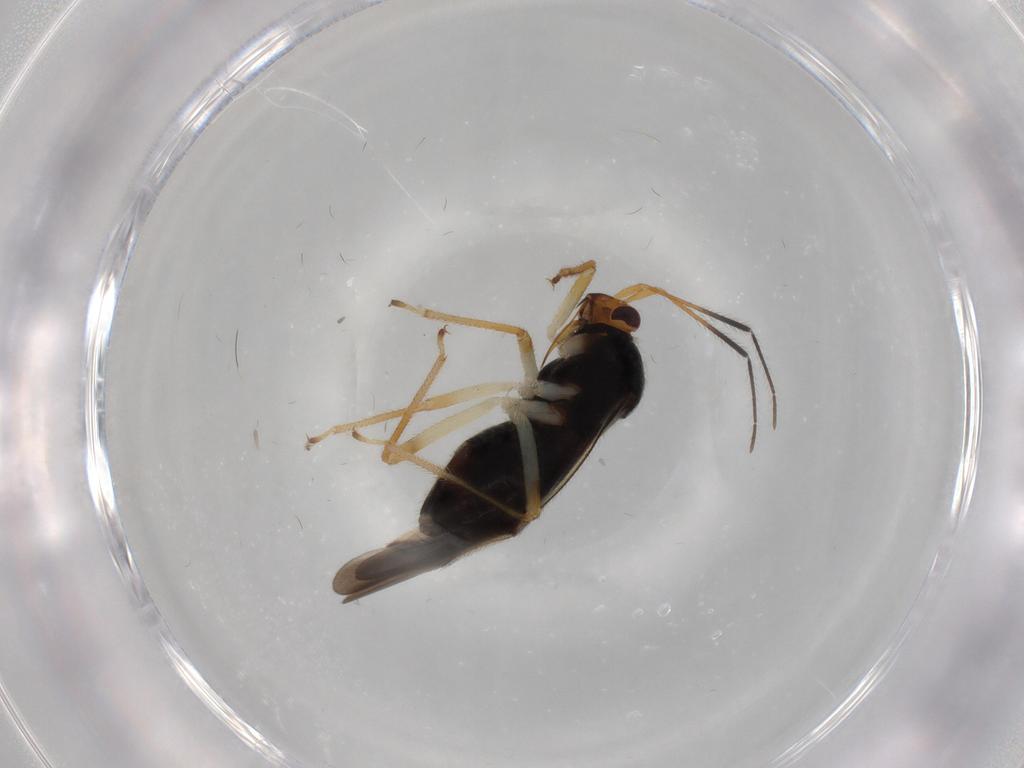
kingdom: Animalia
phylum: Arthropoda
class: Insecta
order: Hemiptera
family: Miridae
